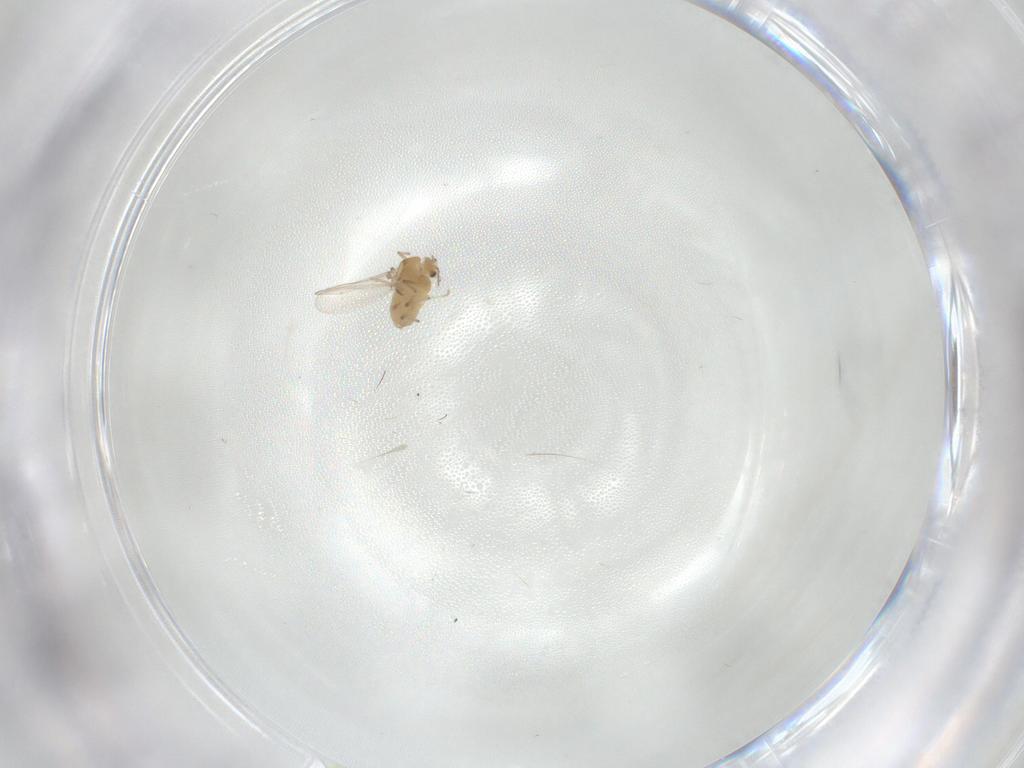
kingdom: Animalia
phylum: Arthropoda
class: Insecta
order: Diptera
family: Chironomidae
